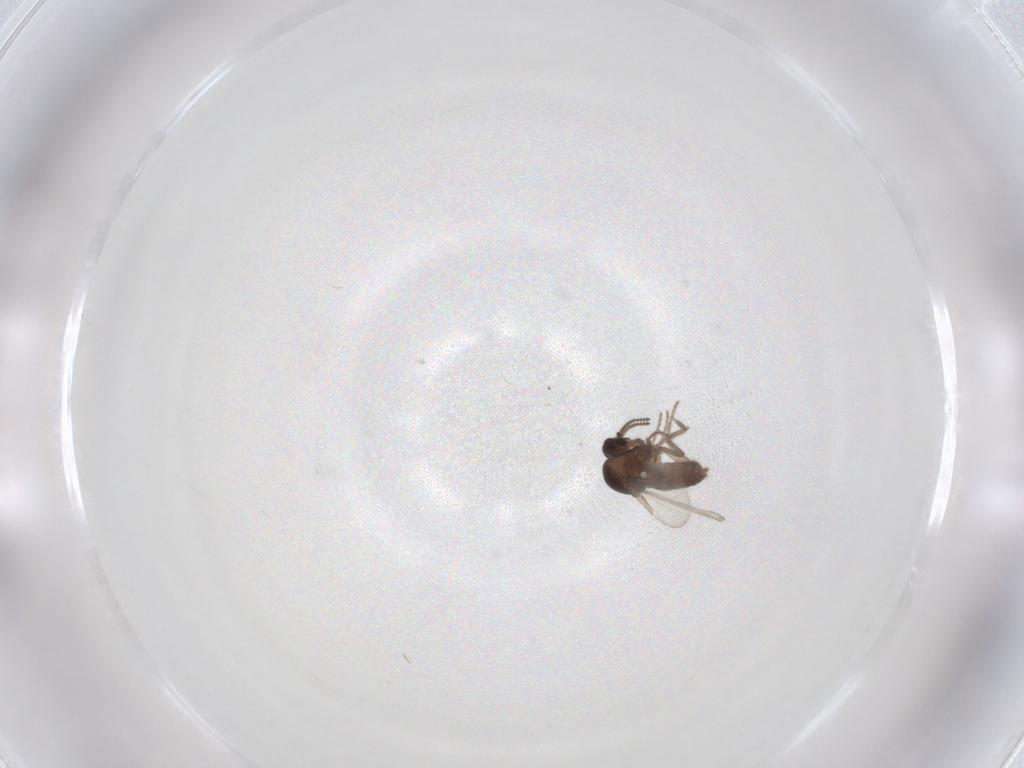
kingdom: Animalia
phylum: Arthropoda
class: Insecta
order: Diptera
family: Ceratopogonidae
